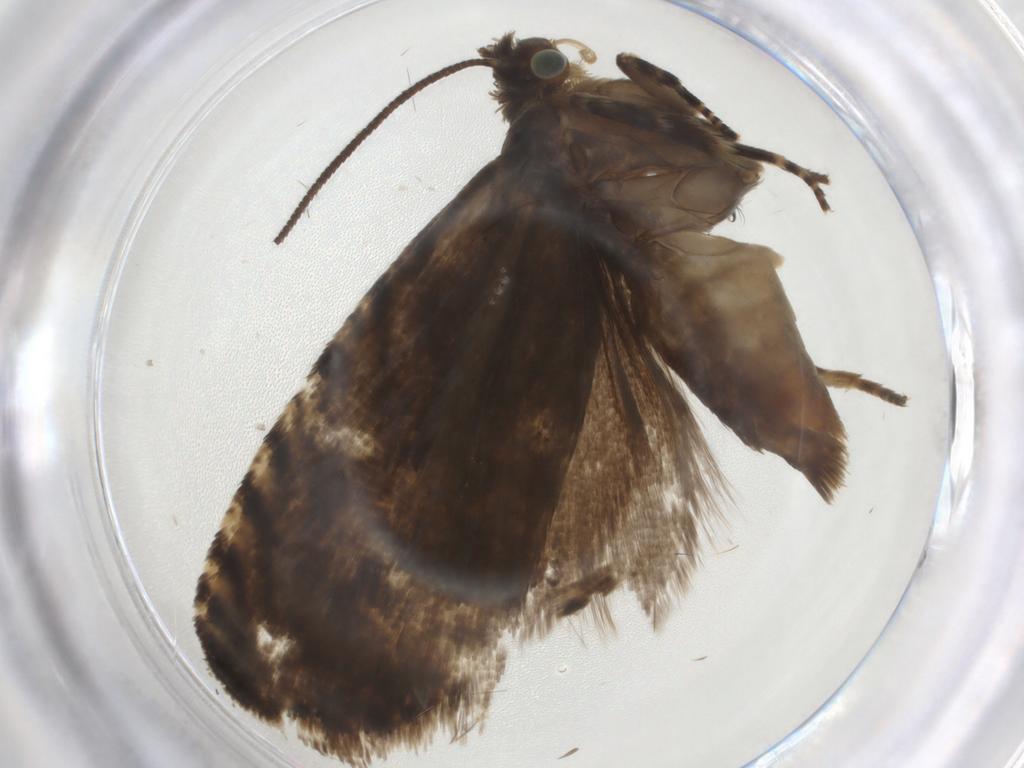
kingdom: Animalia
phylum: Arthropoda
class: Insecta
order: Lepidoptera
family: Tortricidae
